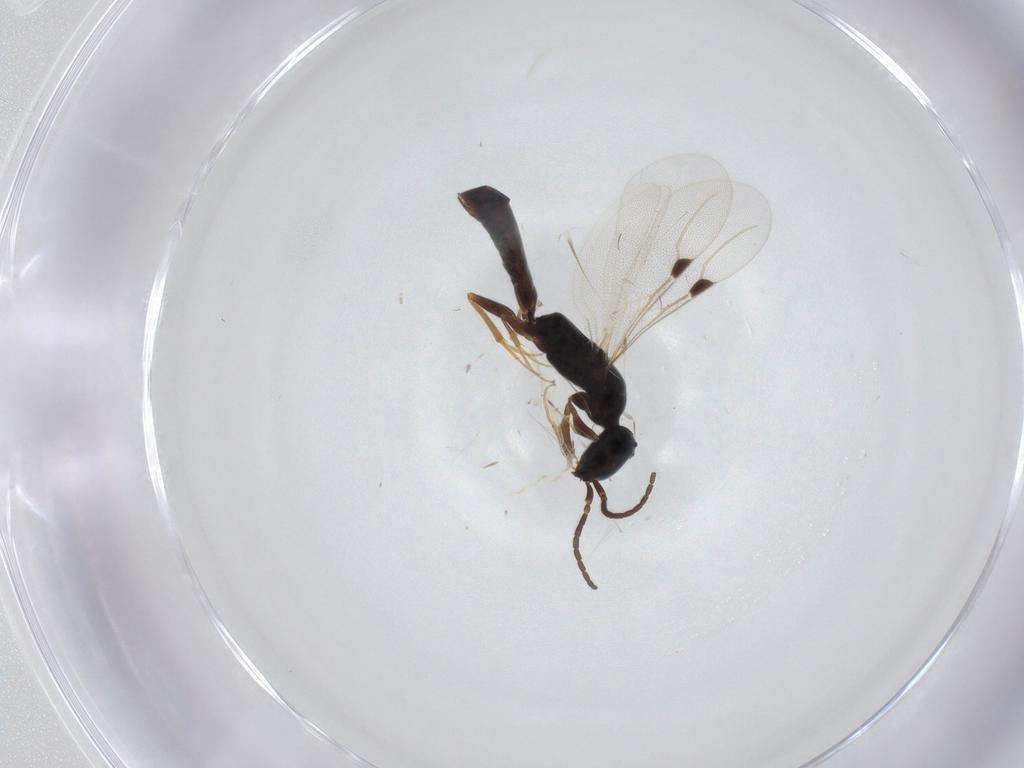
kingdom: Animalia
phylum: Arthropoda
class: Insecta
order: Hymenoptera
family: Bethylidae
